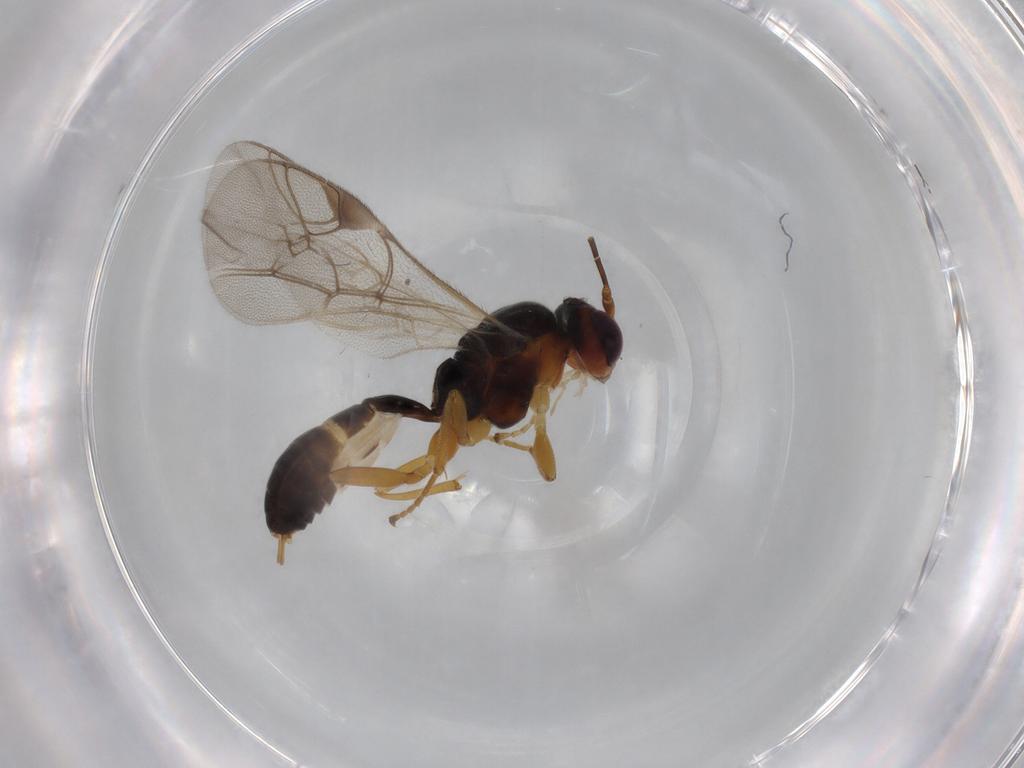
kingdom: Animalia
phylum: Arthropoda
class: Insecta
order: Hymenoptera
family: Ichneumonidae
